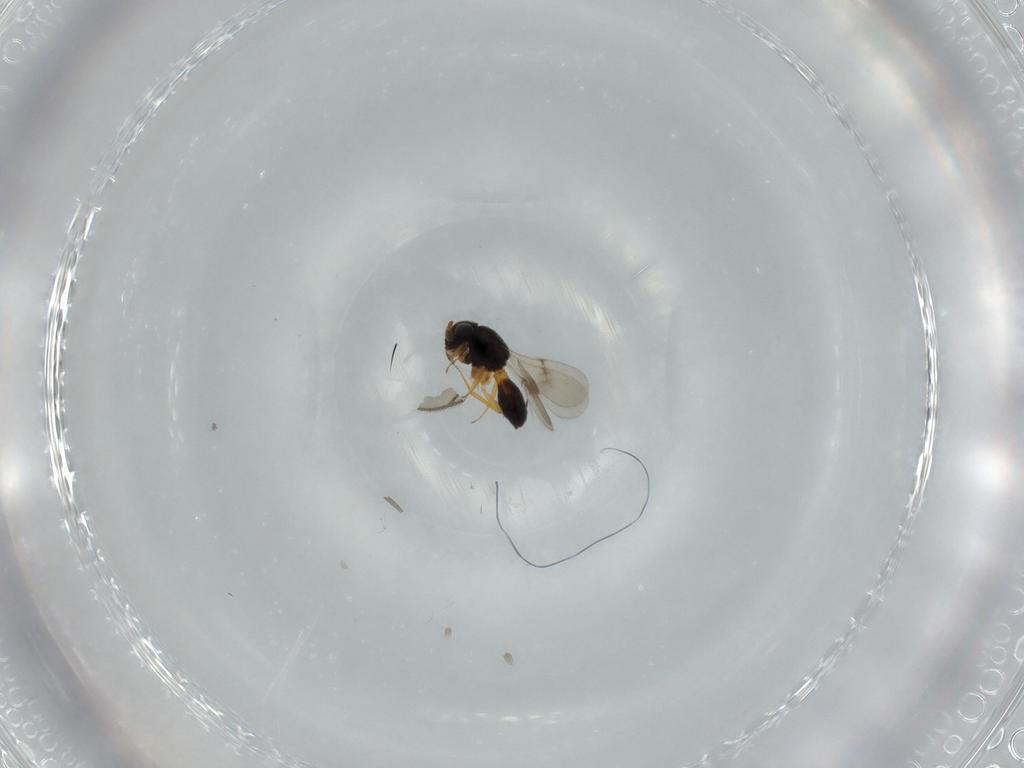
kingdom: Animalia
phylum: Arthropoda
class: Insecta
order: Hymenoptera
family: Scelionidae
